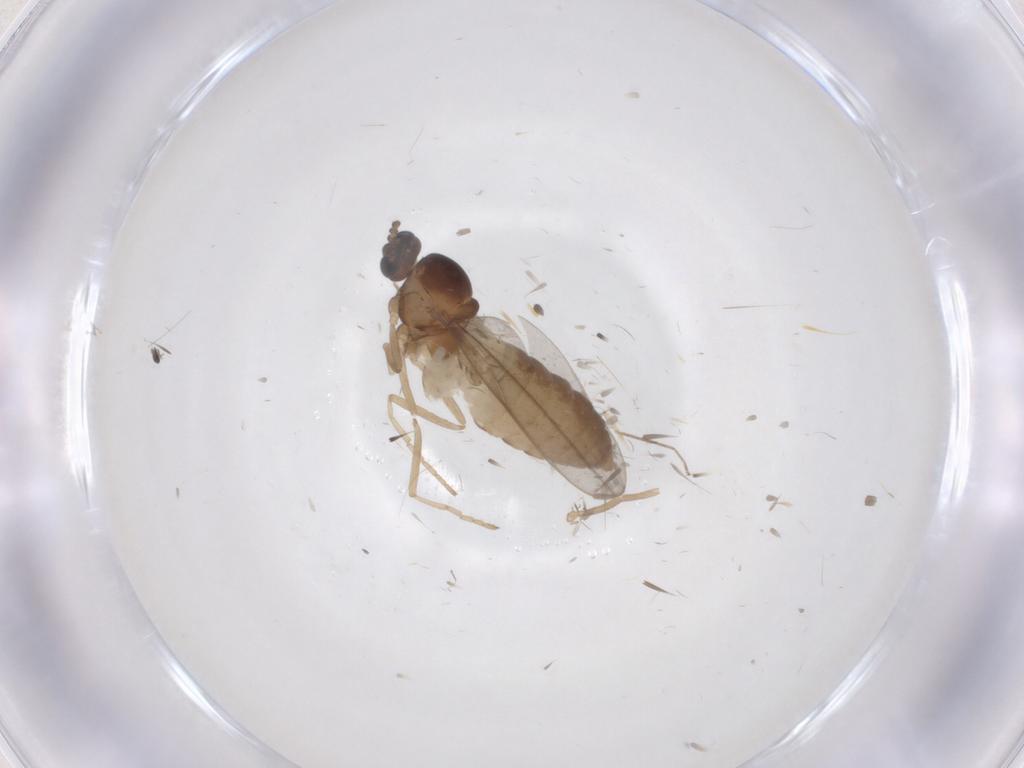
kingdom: Animalia
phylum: Arthropoda
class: Insecta
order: Diptera
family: Cecidomyiidae
